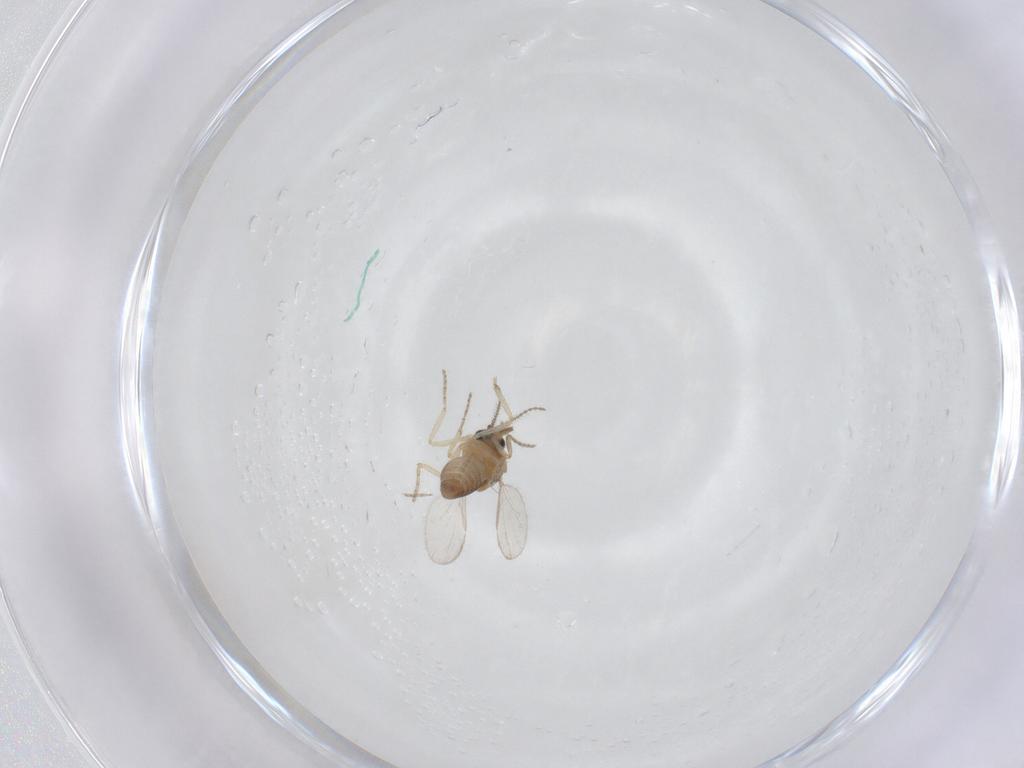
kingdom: Animalia
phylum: Arthropoda
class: Insecta
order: Diptera
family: Ceratopogonidae
